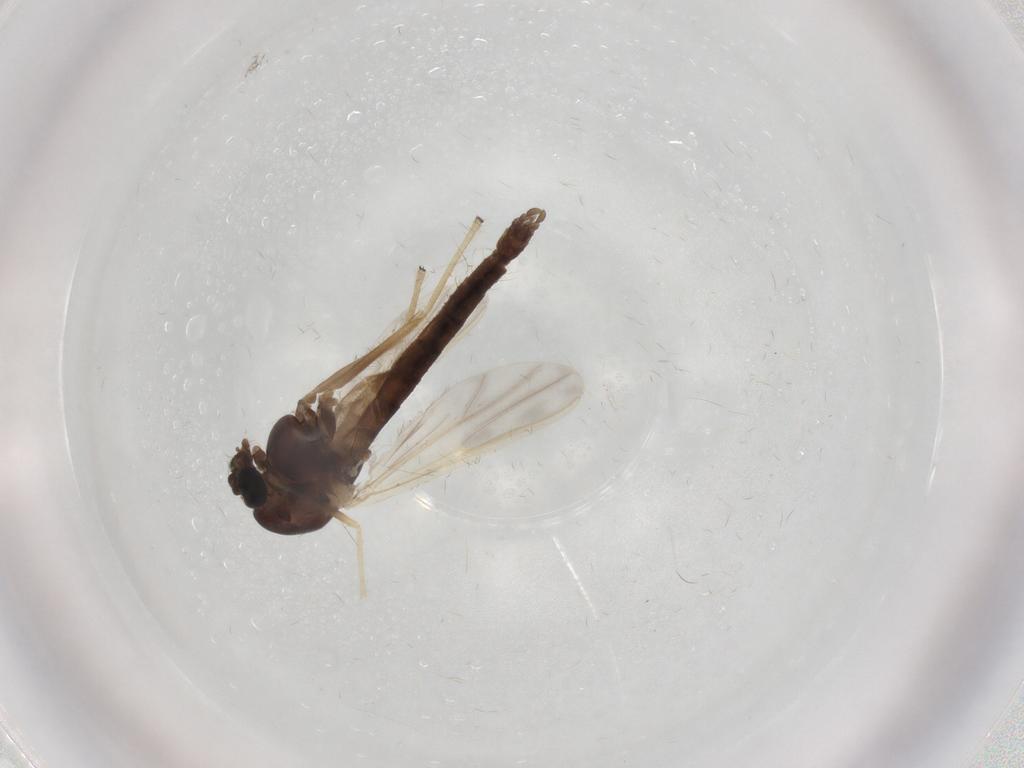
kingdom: Animalia
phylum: Arthropoda
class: Insecta
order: Diptera
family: Chironomidae
